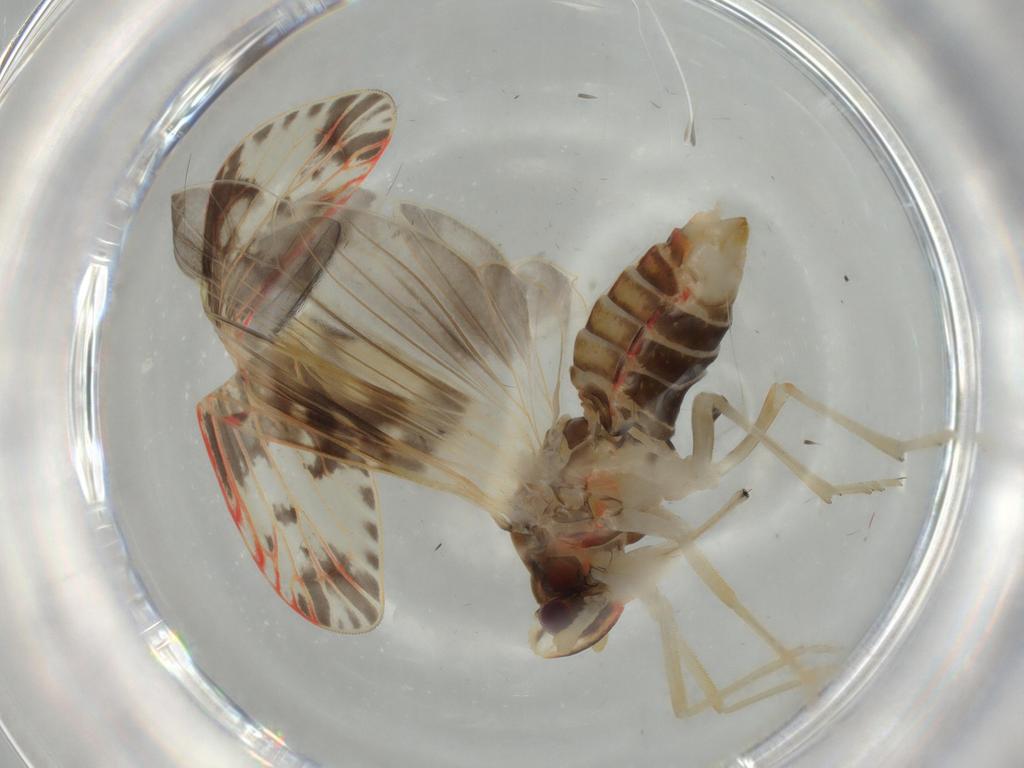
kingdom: Animalia
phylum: Arthropoda
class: Insecta
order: Hemiptera
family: Derbidae
